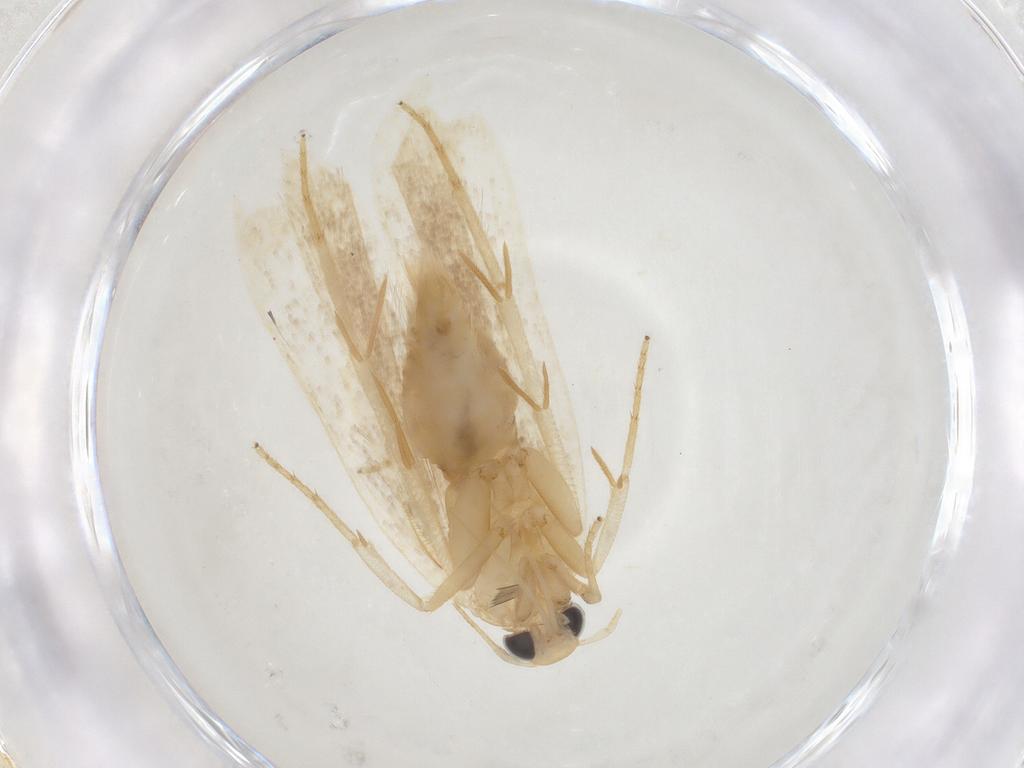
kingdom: Animalia
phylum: Arthropoda
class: Insecta
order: Lepidoptera
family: Gelechiidae
